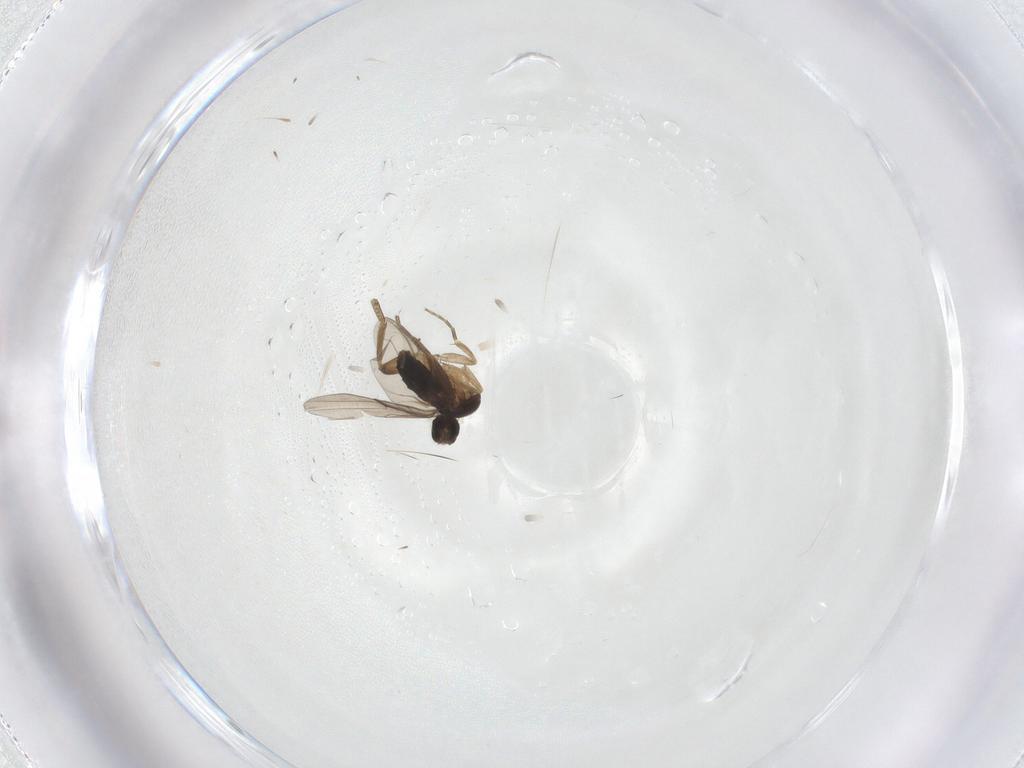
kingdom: Animalia
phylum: Arthropoda
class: Insecta
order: Diptera
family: Phoridae
